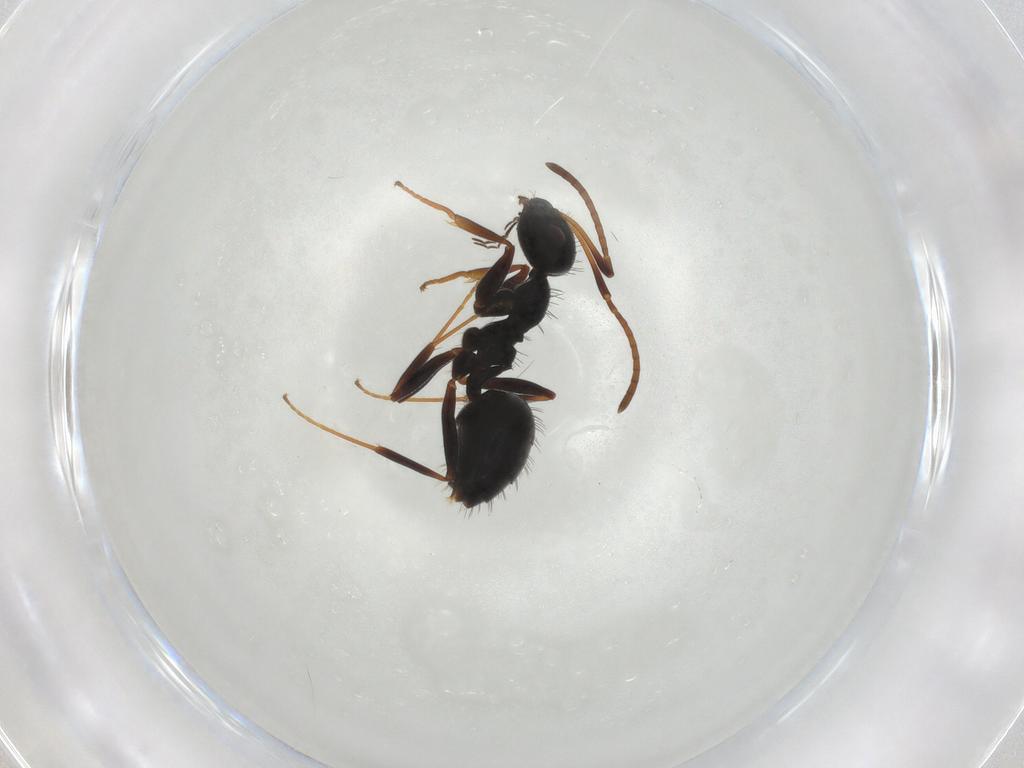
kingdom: Animalia
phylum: Arthropoda
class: Insecta
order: Hymenoptera
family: Formicidae
